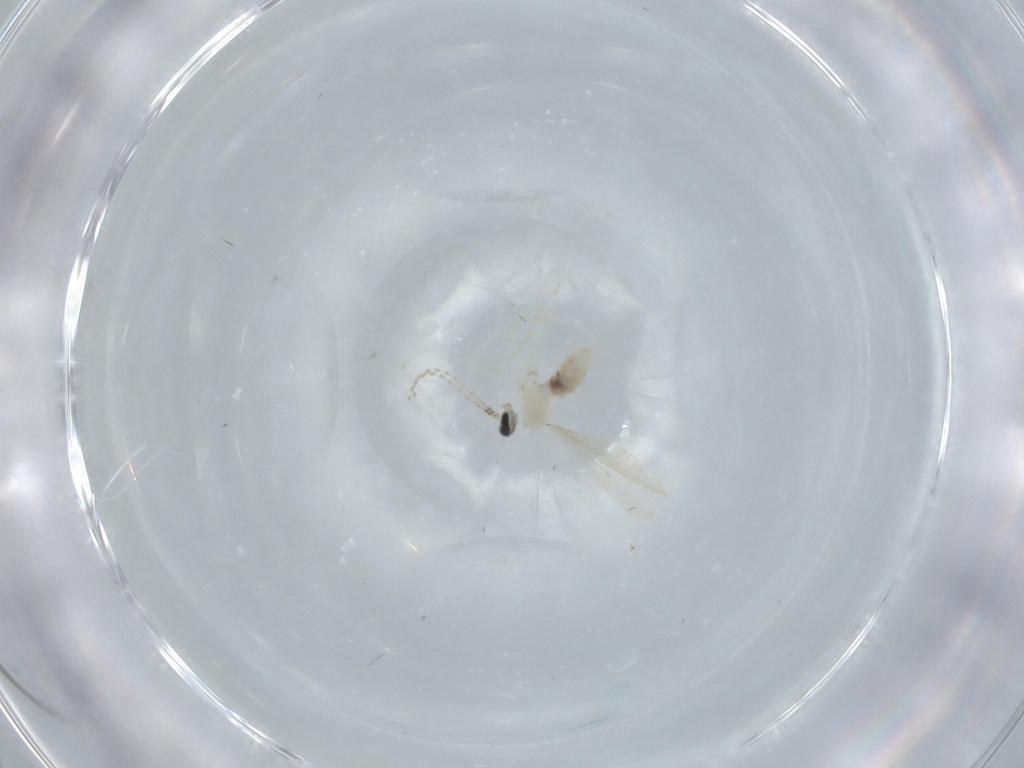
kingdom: Animalia
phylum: Arthropoda
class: Insecta
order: Diptera
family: Cecidomyiidae
